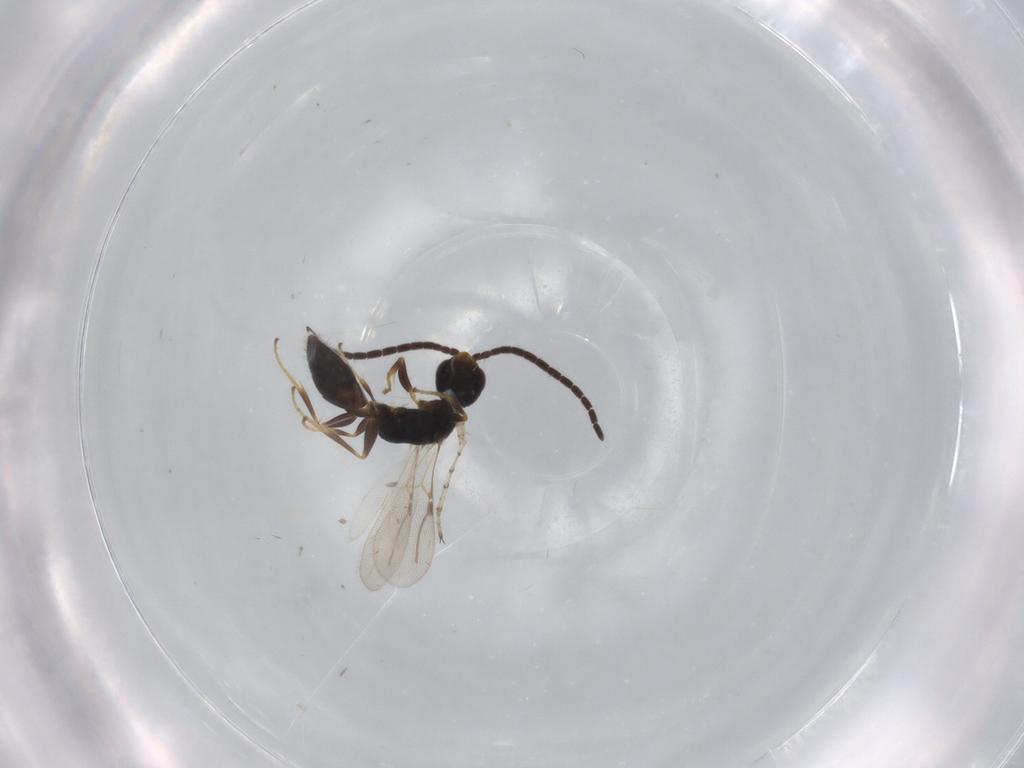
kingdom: Animalia
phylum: Arthropoda
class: Insecta
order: Hymenoptera
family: Bethylidae
